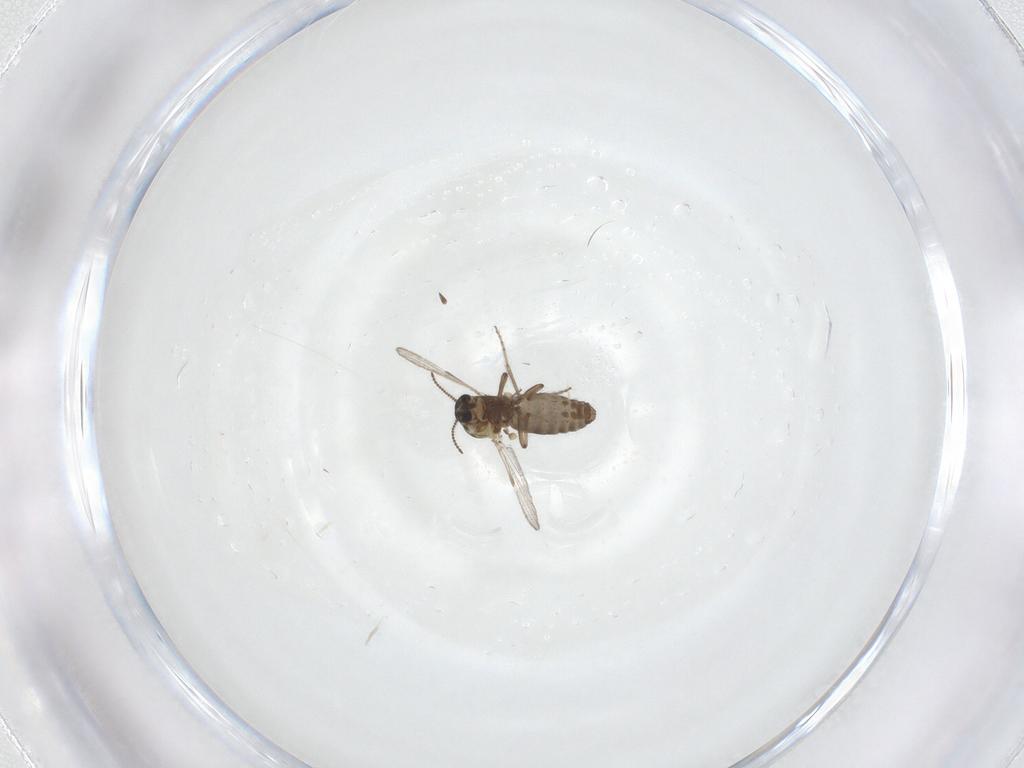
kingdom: Animalia
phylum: Arthropoda
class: Insecta
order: Diptera
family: Ceratopogonidae
